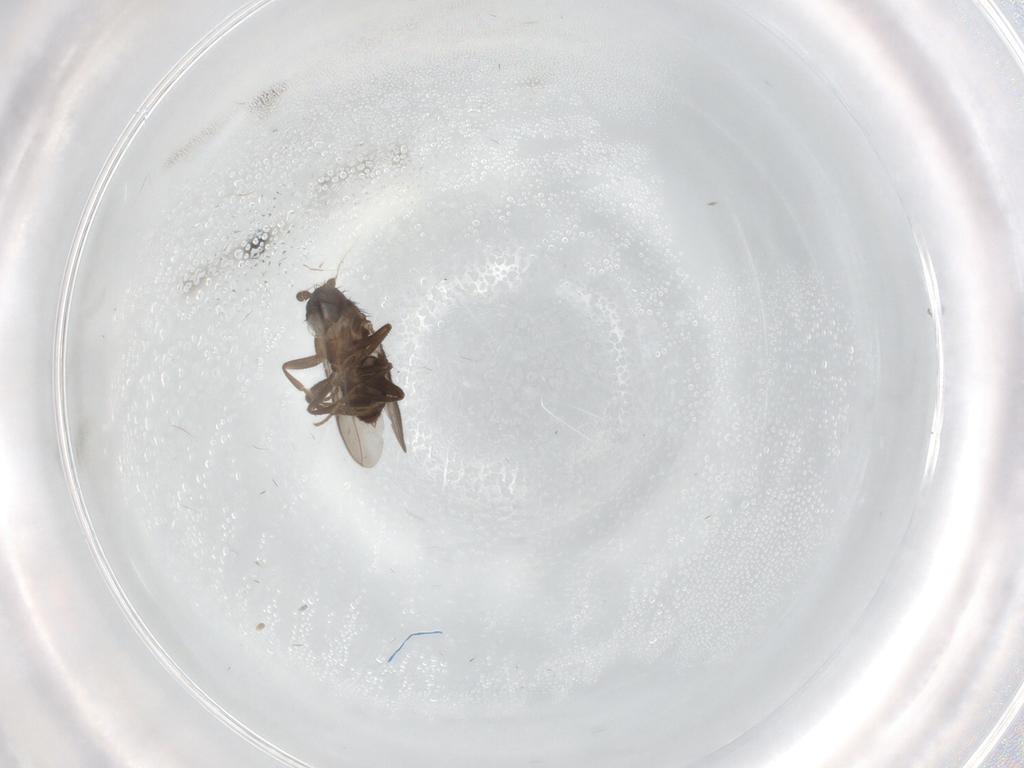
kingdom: Animalia
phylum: Arthropoda
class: Insecta
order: Diptera
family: Sphaeroceridae
